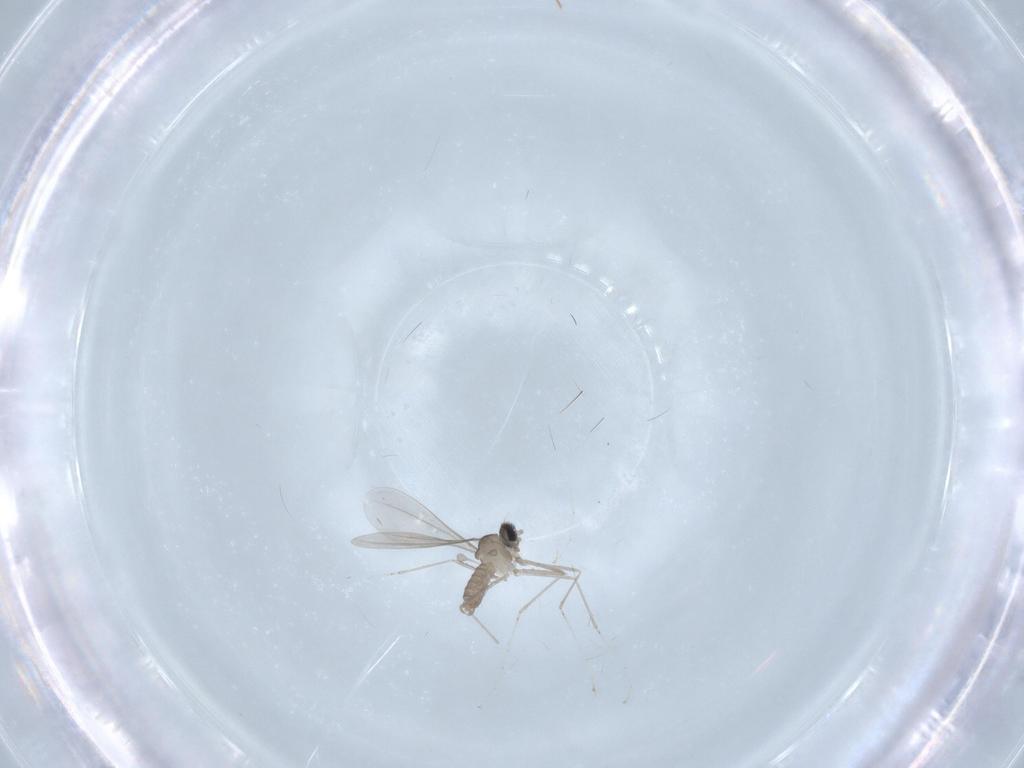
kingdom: Animalia
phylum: Arthropoda
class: Insecta
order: Diptera
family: Cecidomyiidae
